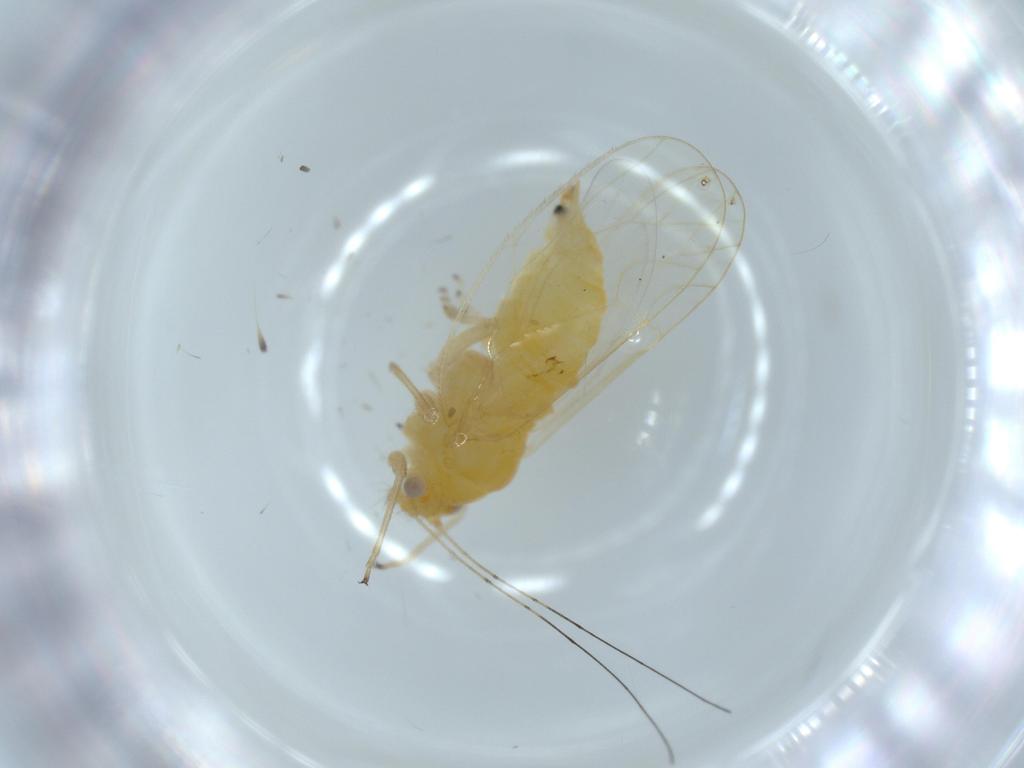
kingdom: Animalia
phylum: Arthropoda
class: Insecta
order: Hemiptera
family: Psyllidae
